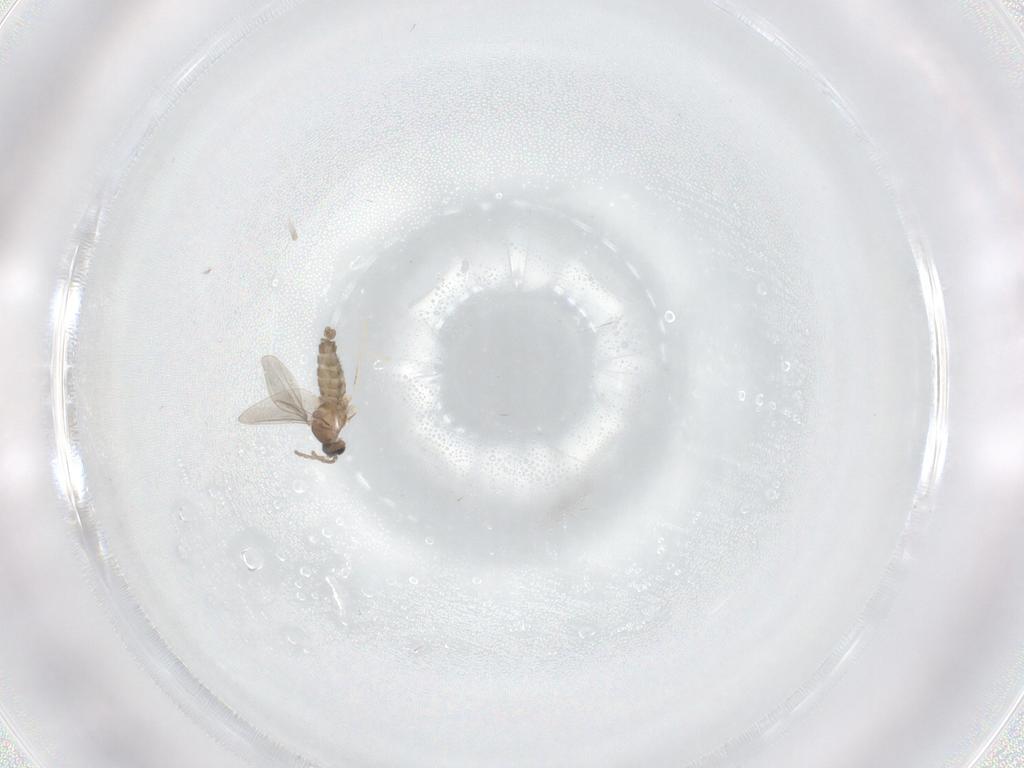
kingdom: Animalia
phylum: Arthropoda
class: Insecta
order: Diptera
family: Cecidomyiidae
